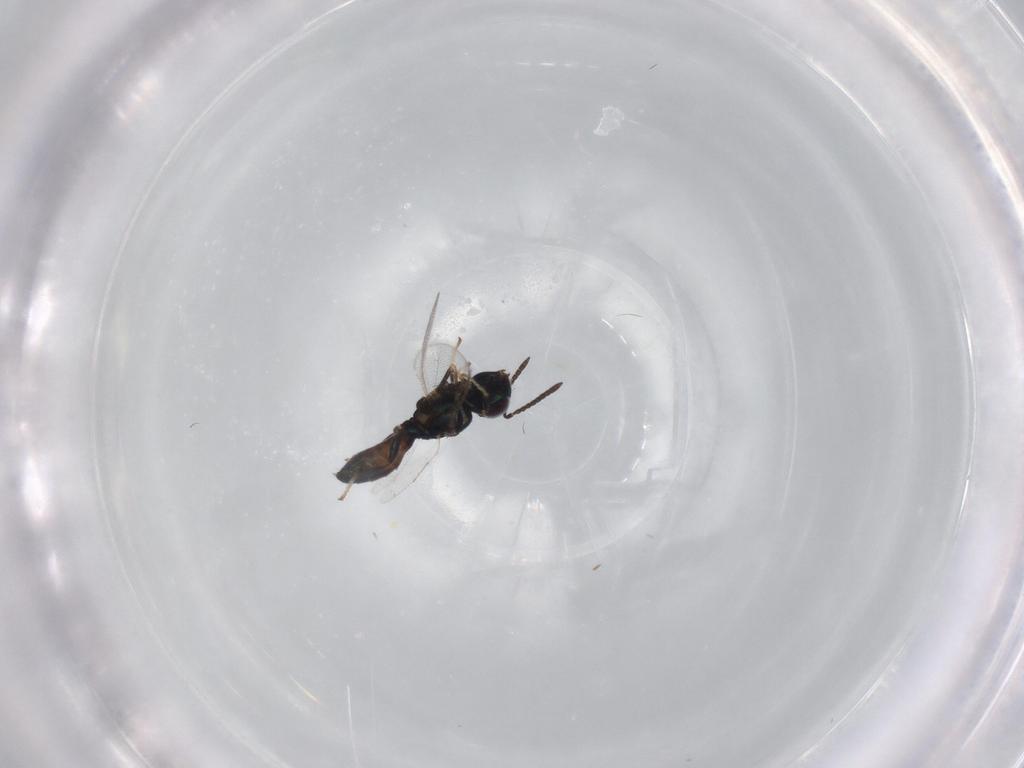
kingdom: Animalia
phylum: Arthropoda
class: Insecta
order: Hymenoptera
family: Aphelinidae
